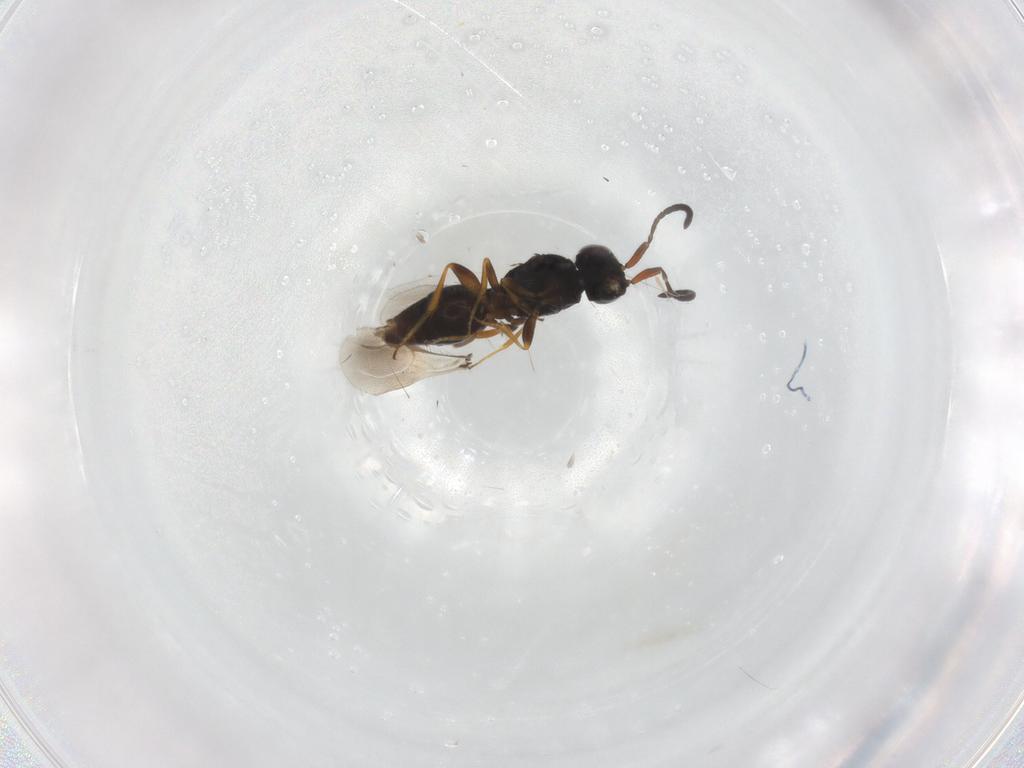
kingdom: Animalia
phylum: Arthropoda
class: Insecta
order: Hymenoptera
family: Megaspilidae
